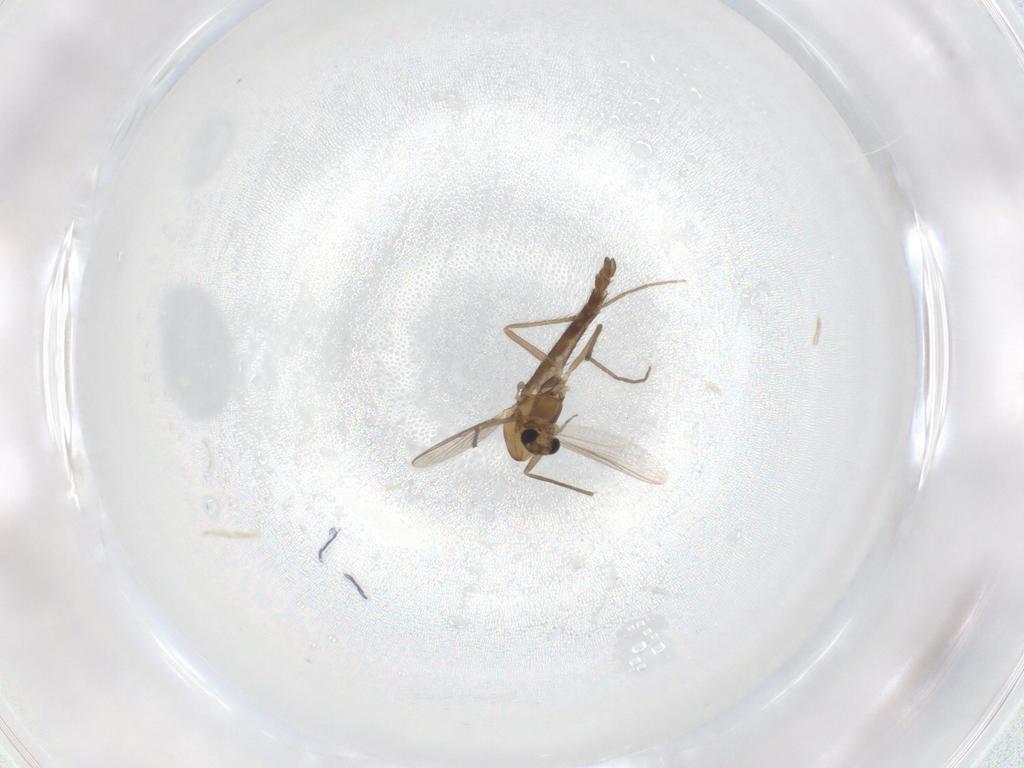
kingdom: Animalia
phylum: Arthropoda
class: Insecta
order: Diptera
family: Chironomidae
